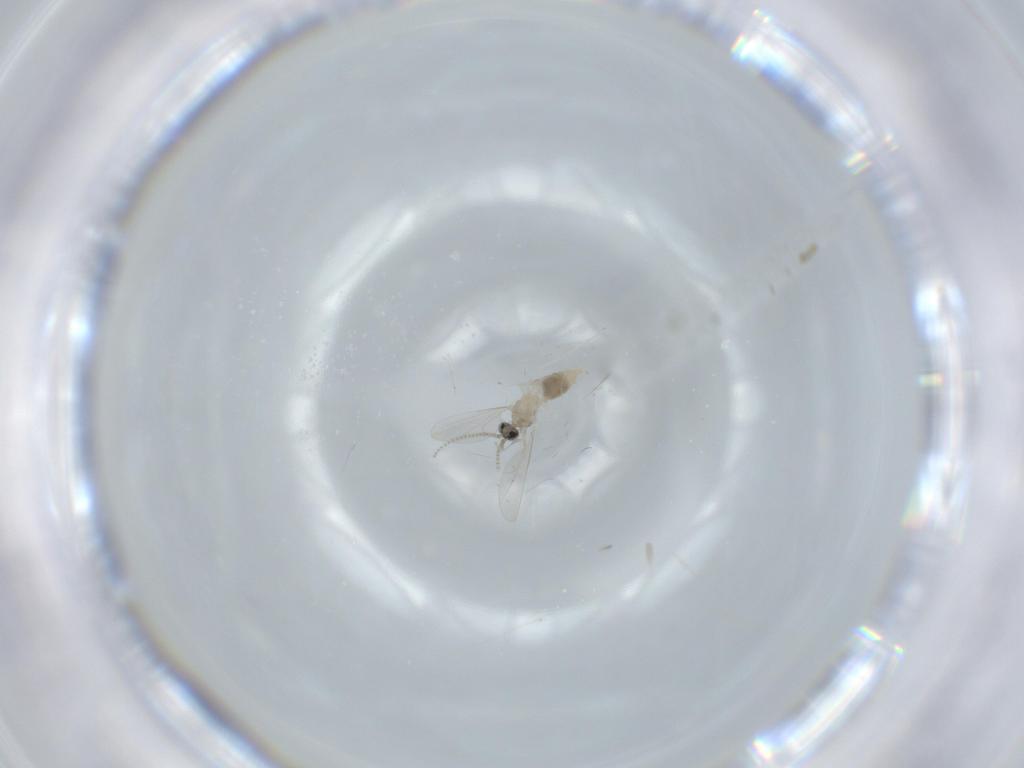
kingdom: Animalia
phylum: Arthropoda
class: Insecta
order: Diptera
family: Cecidomyiidae
